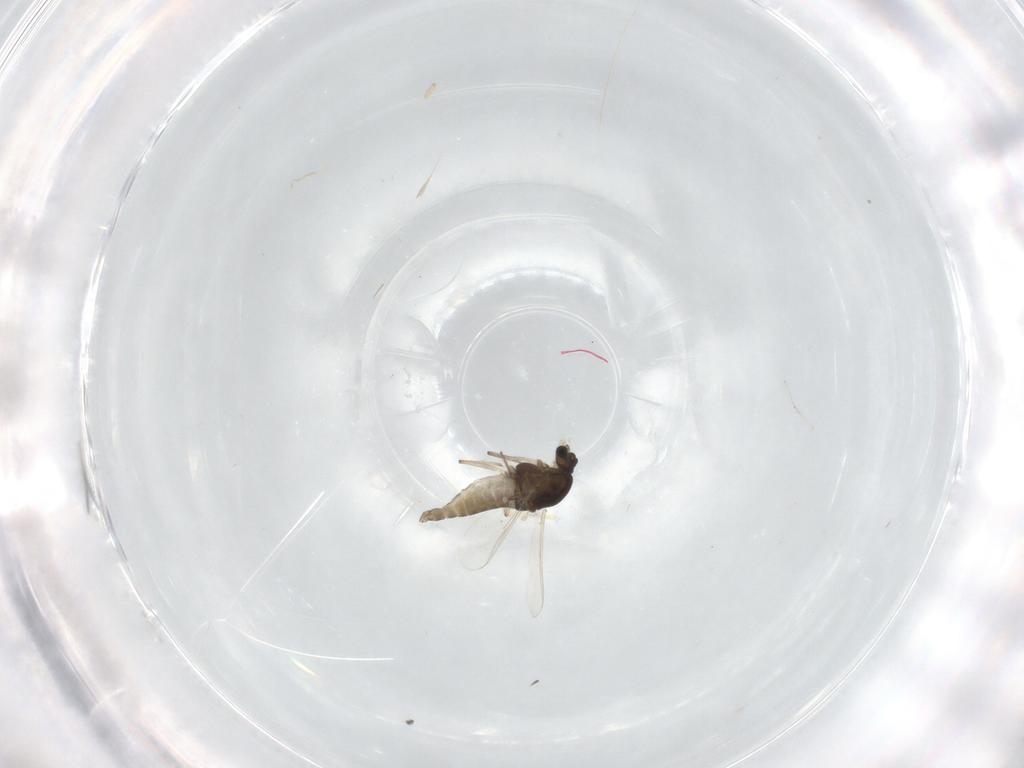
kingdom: Animalia
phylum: Arthropoda
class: Insecta
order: Diptera
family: Chironomidae
